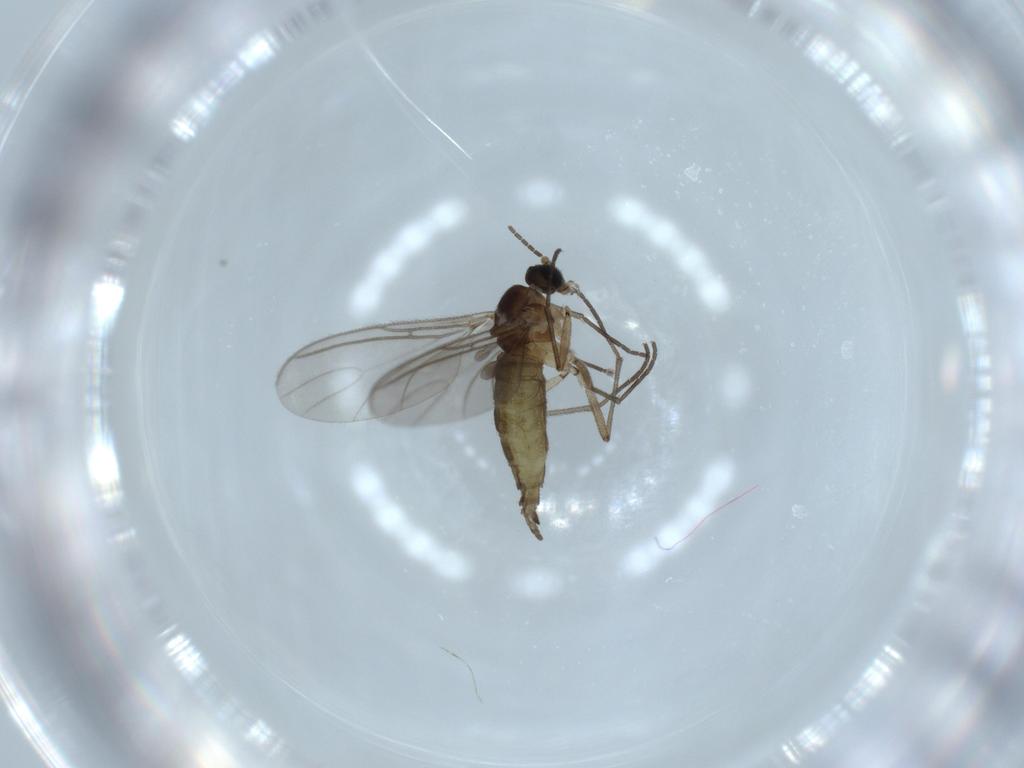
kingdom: Animalia
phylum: Arthropoda
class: Insecta
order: Diptera
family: Sciaridae
